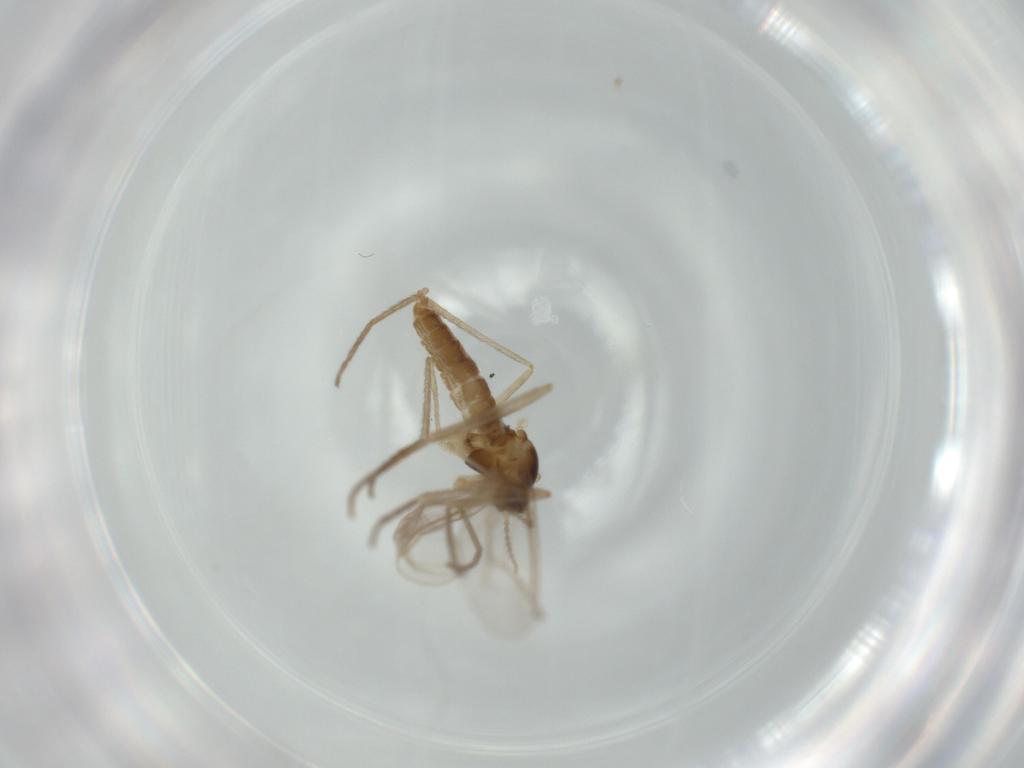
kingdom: Animalia
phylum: Arthropoda
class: Insecta
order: Diptera
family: Cecidomyiidae
